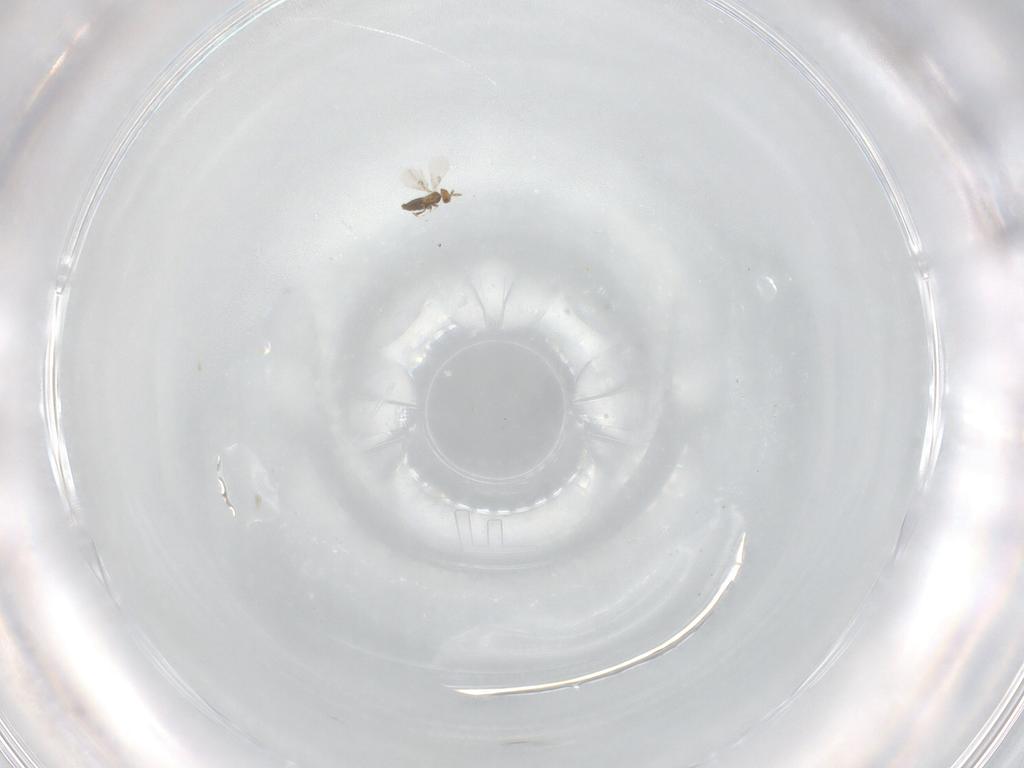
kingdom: Animalia
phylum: Arthropoda
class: Insecta
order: Hymenoptera
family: Trichogrammatidae
